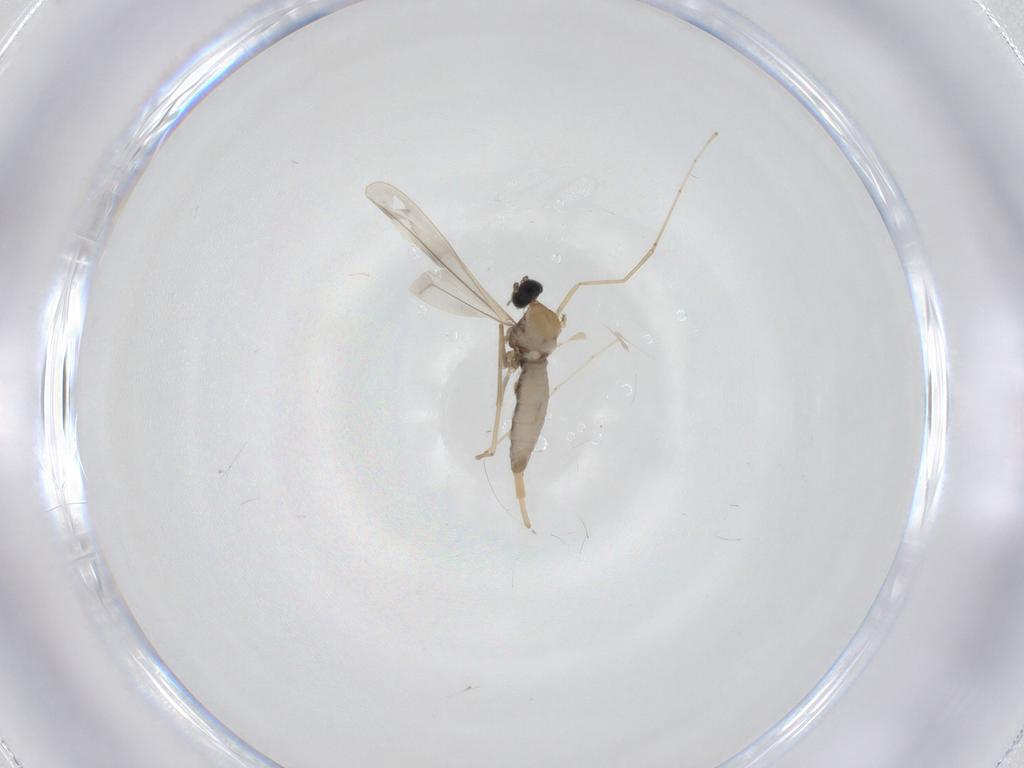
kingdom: Animalia
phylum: Arthropoda
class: Insecta
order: Diptera
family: Cecidomyiidae
